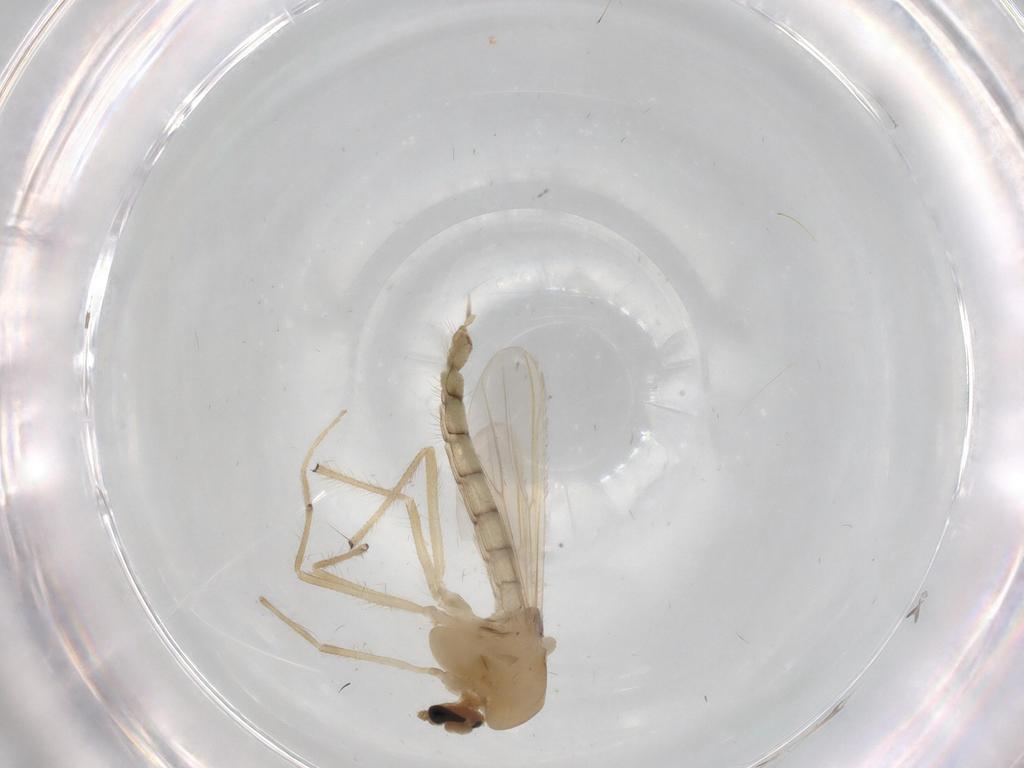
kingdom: Animalia
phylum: Arthropoda
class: Insecta
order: Diptera
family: Chironomidae
